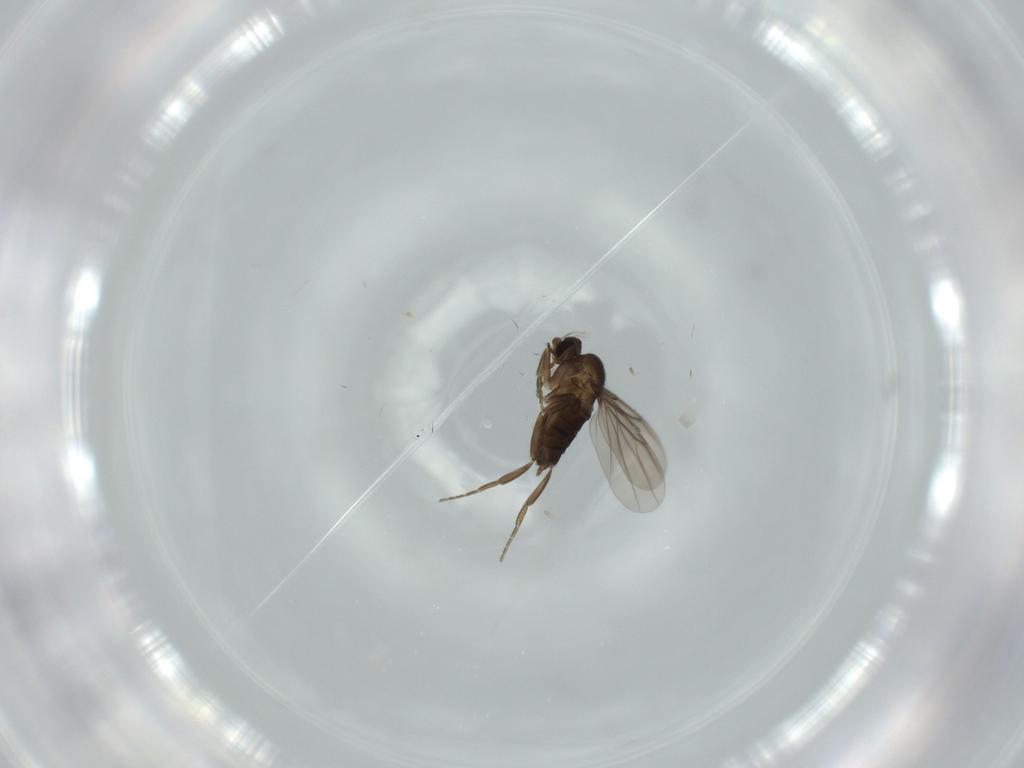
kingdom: Animalia
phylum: Arthropoda
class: Insecta
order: Diptera
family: Phoridae
